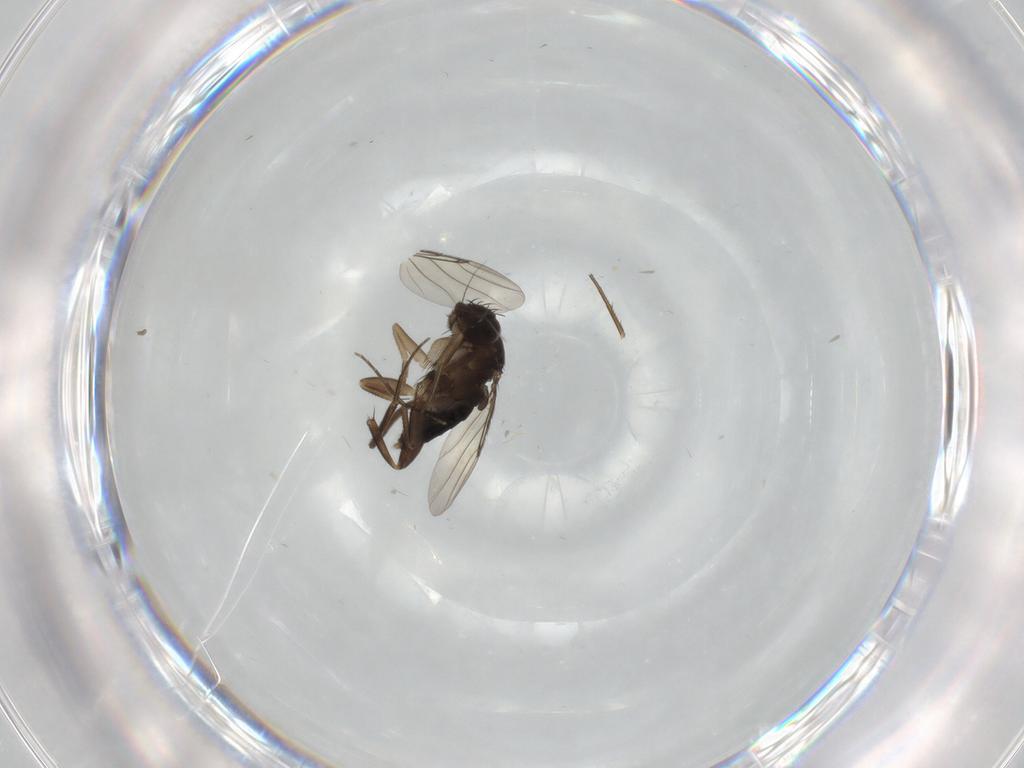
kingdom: Animalia
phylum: Arthropoda
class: Insecta
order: Diptera
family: Phoridae
